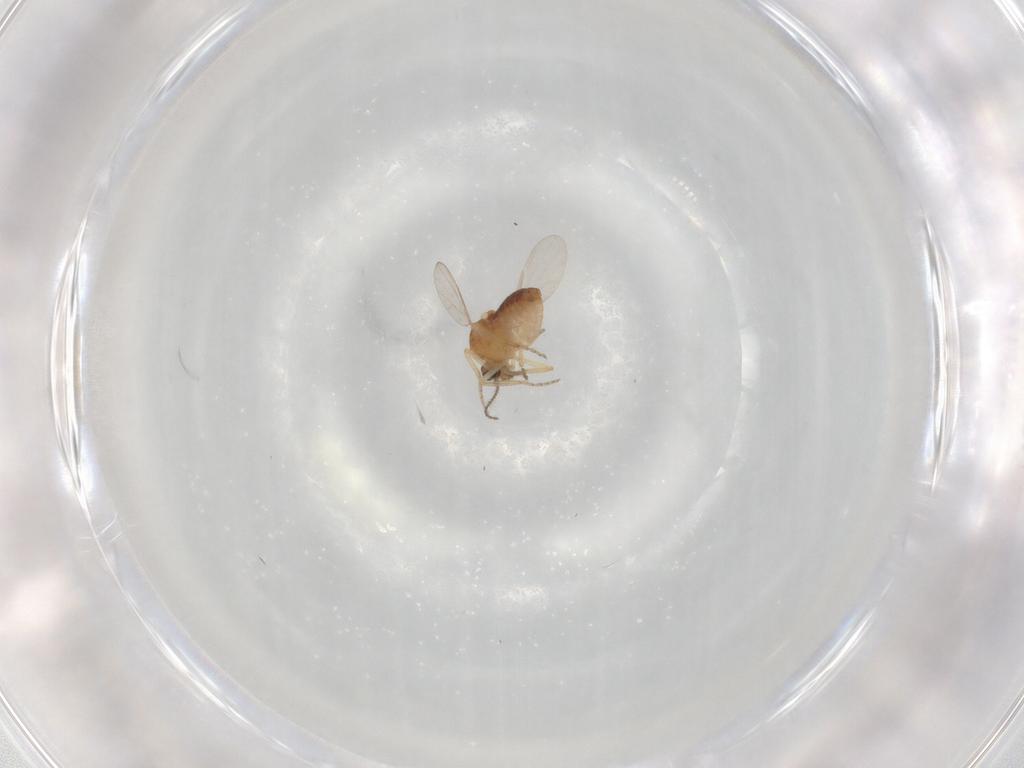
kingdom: Animalia
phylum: Arthropoda
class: Insecta
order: Diptera
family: Ceratopogonidae
